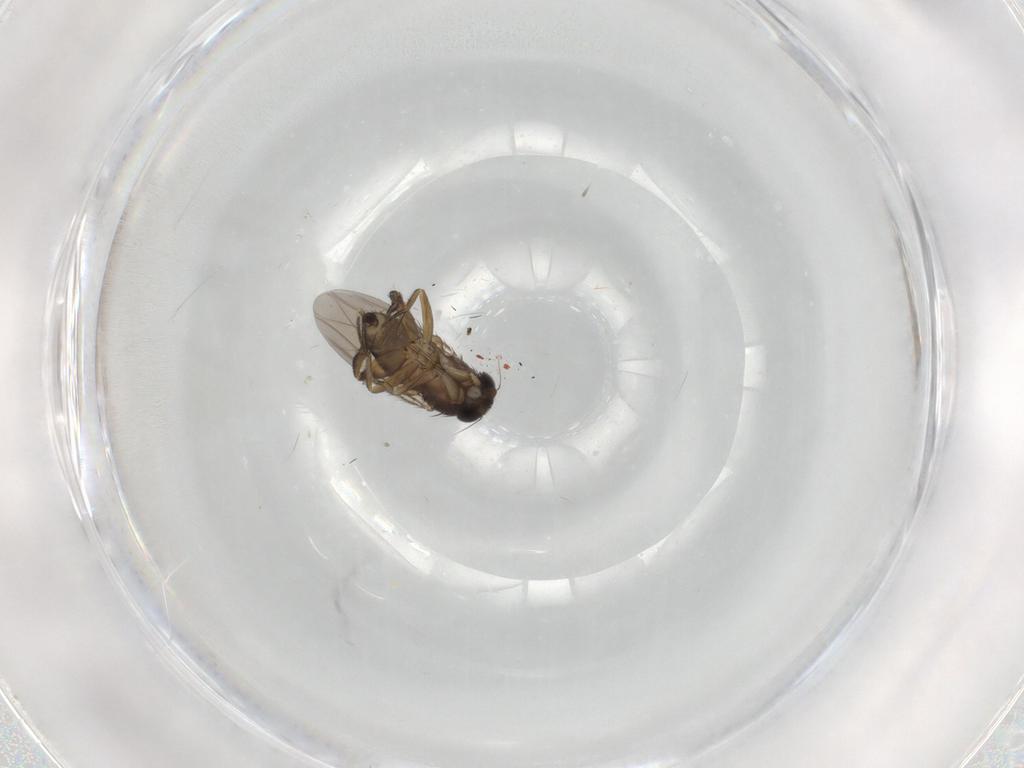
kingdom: Animalia
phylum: Arthropoda
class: Insecta
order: Diptera
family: Phoridae
